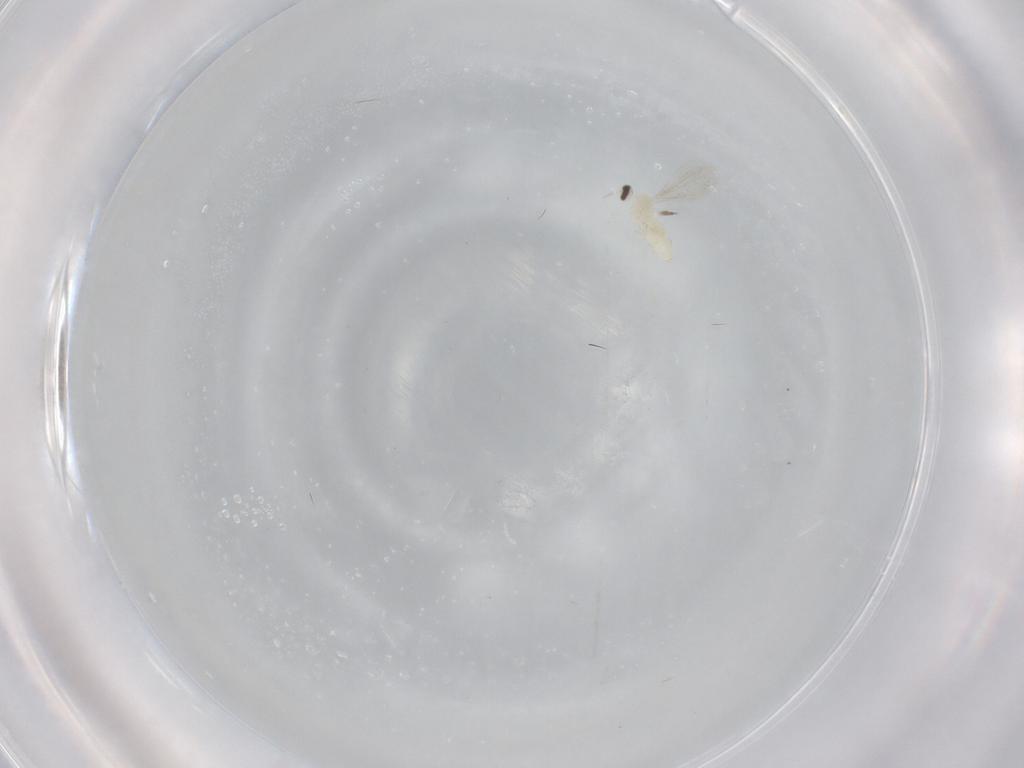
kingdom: Animalia
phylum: Arthropoda
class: Insecta
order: Diptera
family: Cecidomyiidae
